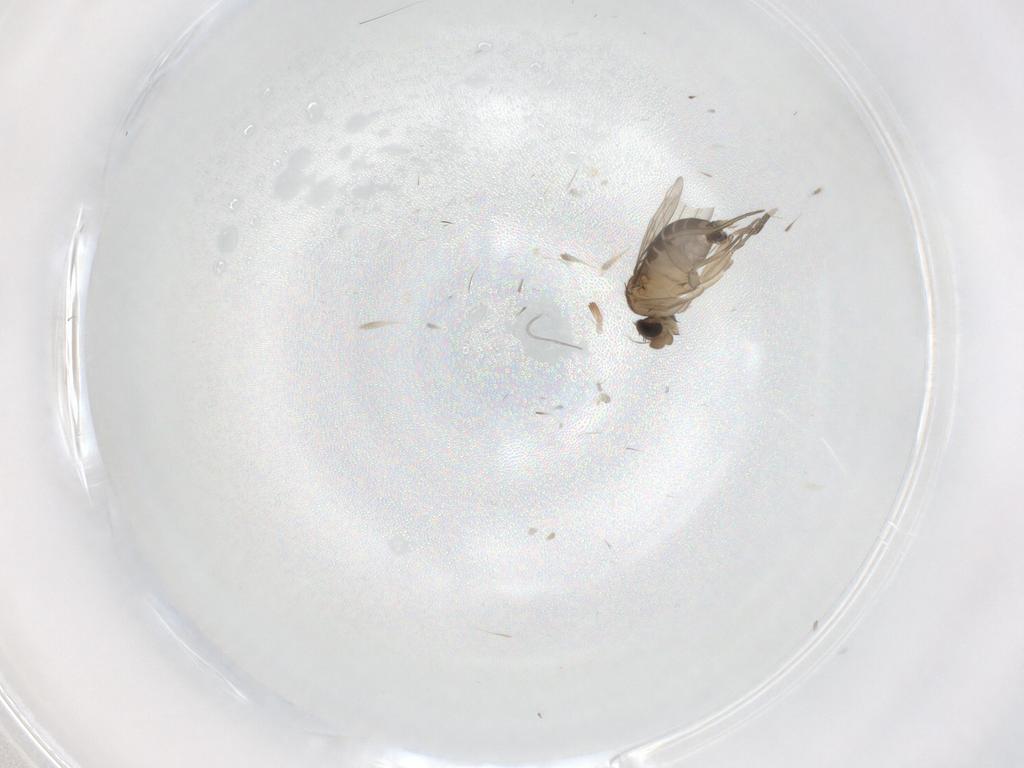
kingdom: Animalia
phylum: Arthropoda
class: Insecta
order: Diptera
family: Phoridae
